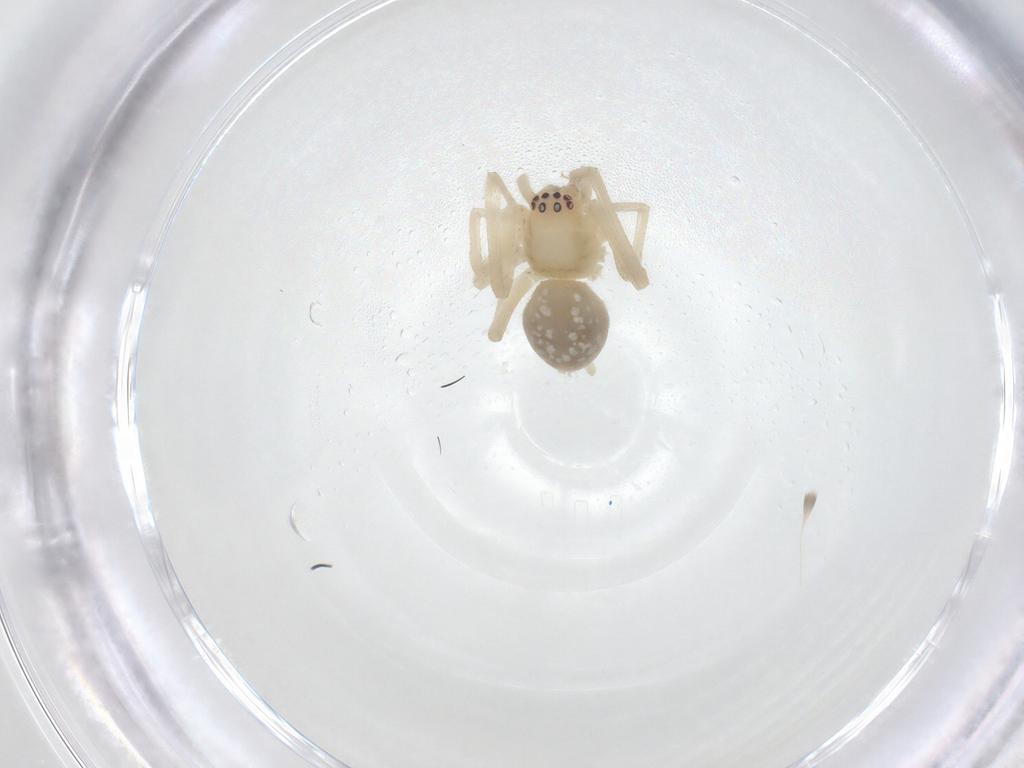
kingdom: Animalia
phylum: Arthropoda
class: Arachnida
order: Araneae
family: Cheiracanthiidae
